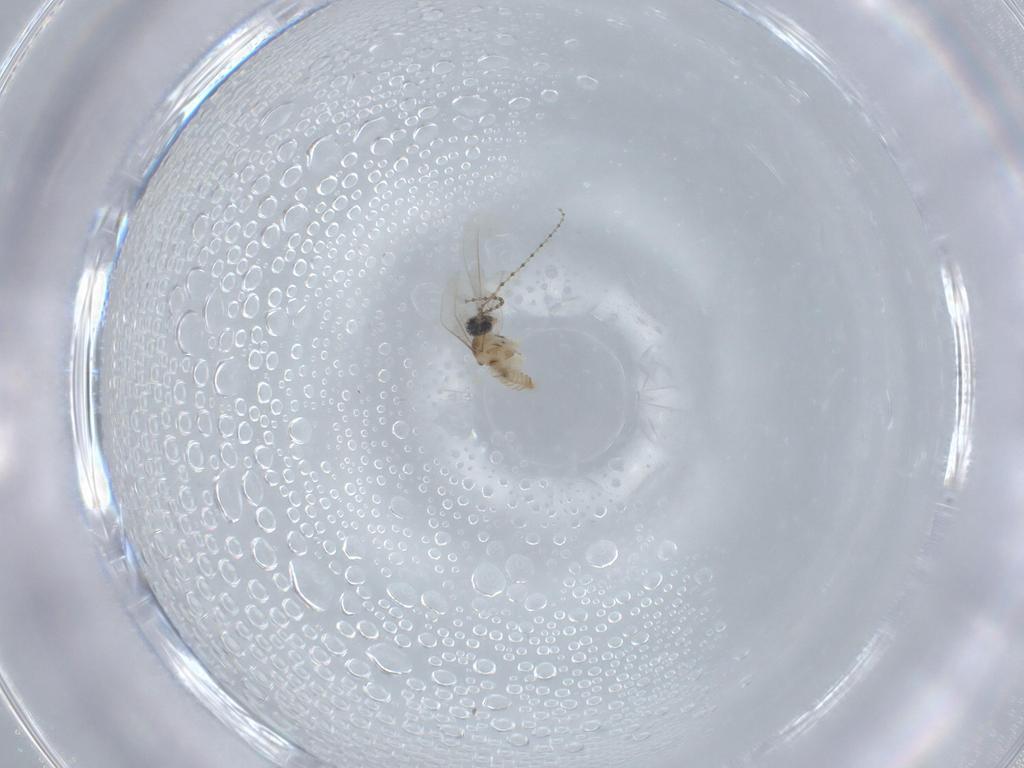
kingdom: Animalia
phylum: Arthropoda
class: Insecta
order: Diptera
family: Cecidomyiidae
